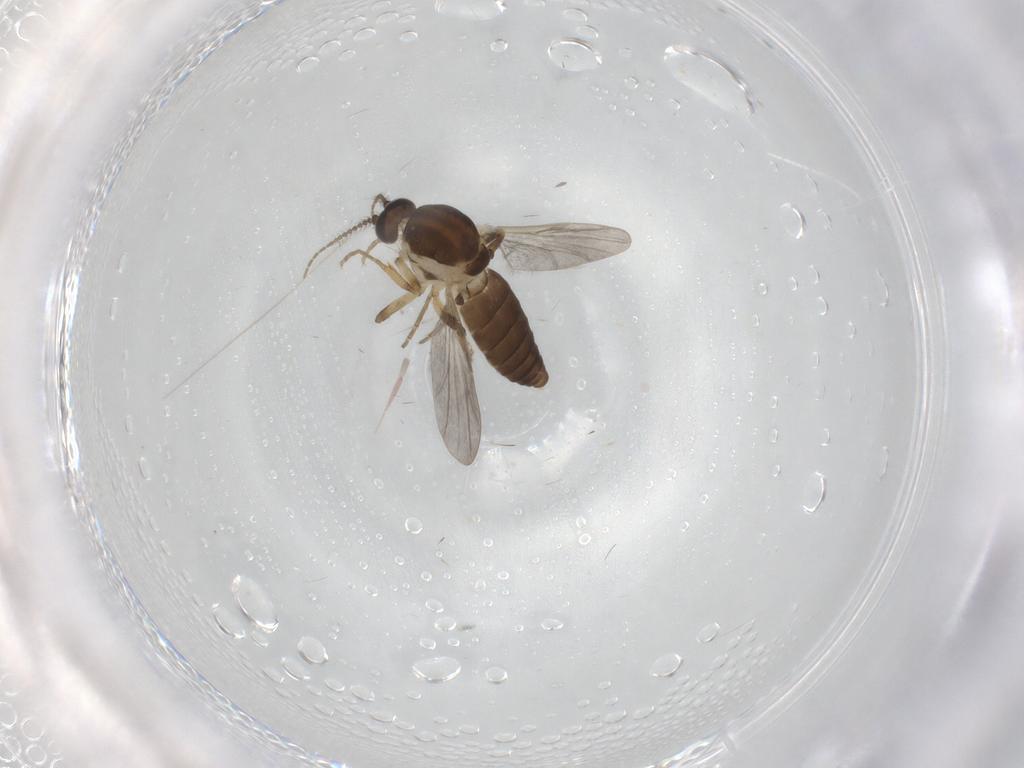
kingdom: Animalia
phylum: Arthropoda
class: Insecta
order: Diptera
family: Ceratopogonidae
